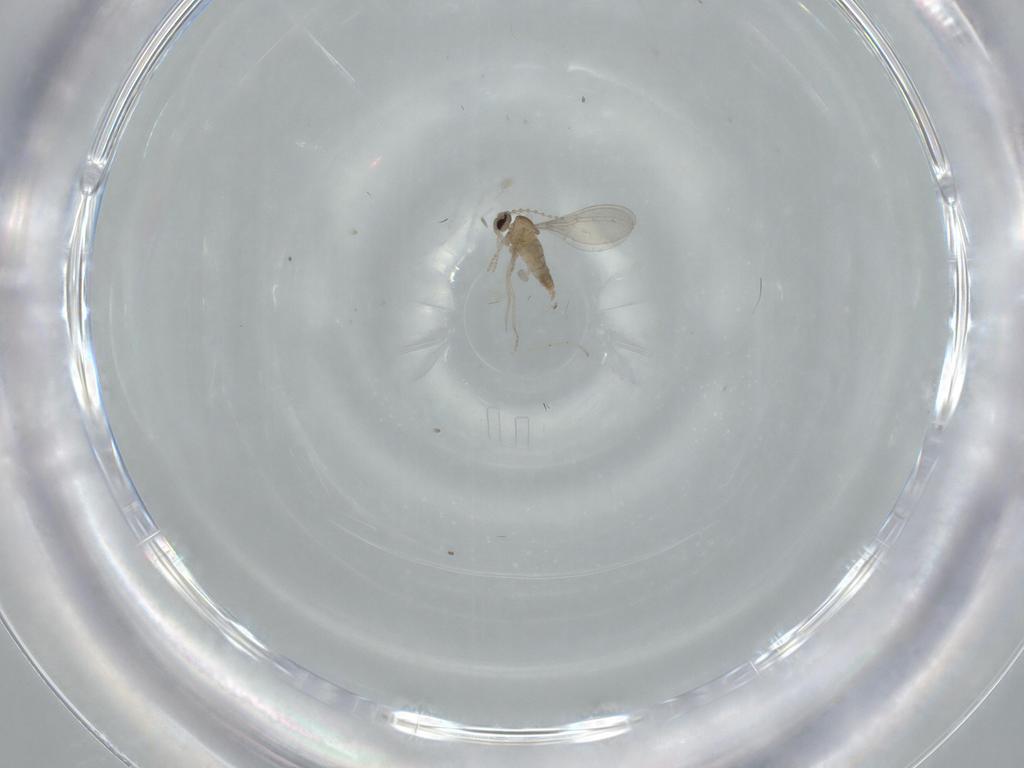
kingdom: Animalia
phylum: Arthropoda
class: Insecta
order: Diptera
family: Cecidomyiidae
